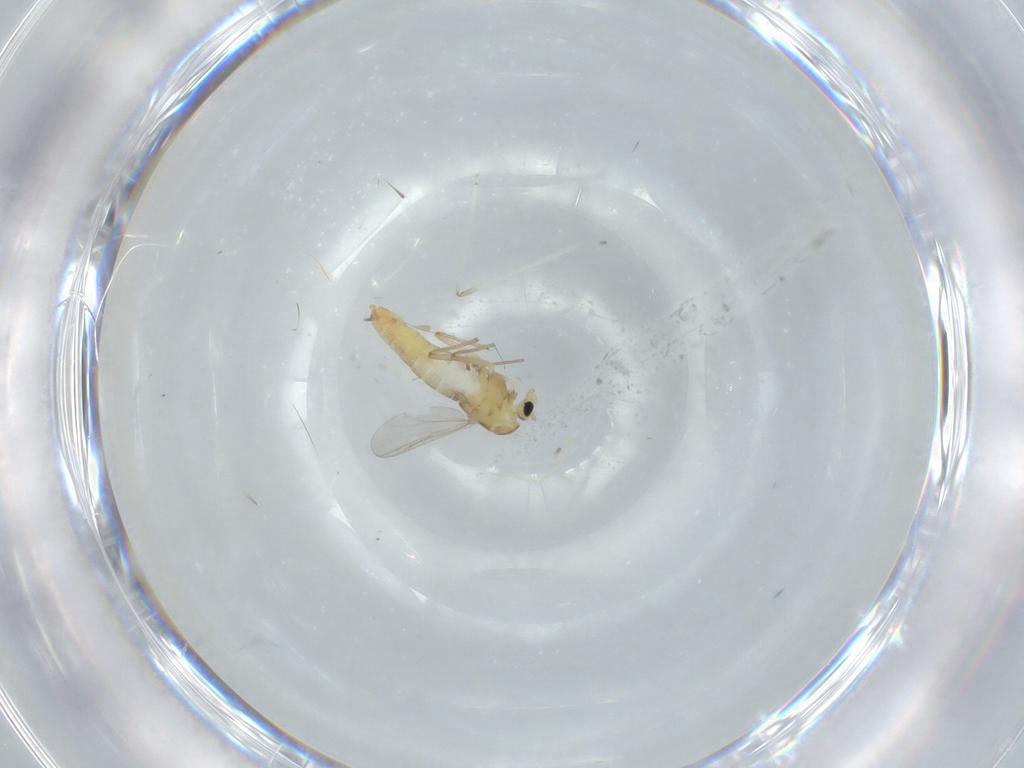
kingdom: Animalia
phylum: Arthropoda
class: Insecta
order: Diptera
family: Chironomidae
